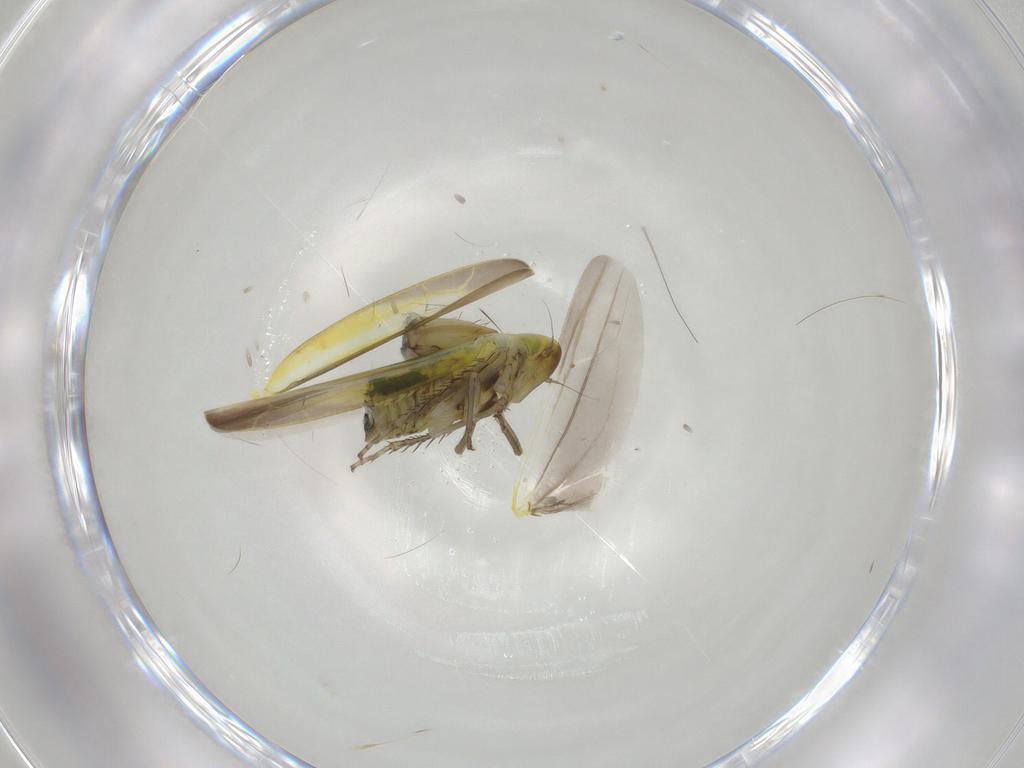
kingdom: Animalia
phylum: Arthropoda
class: Insecta
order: Hemiptera
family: Cicadellidae
